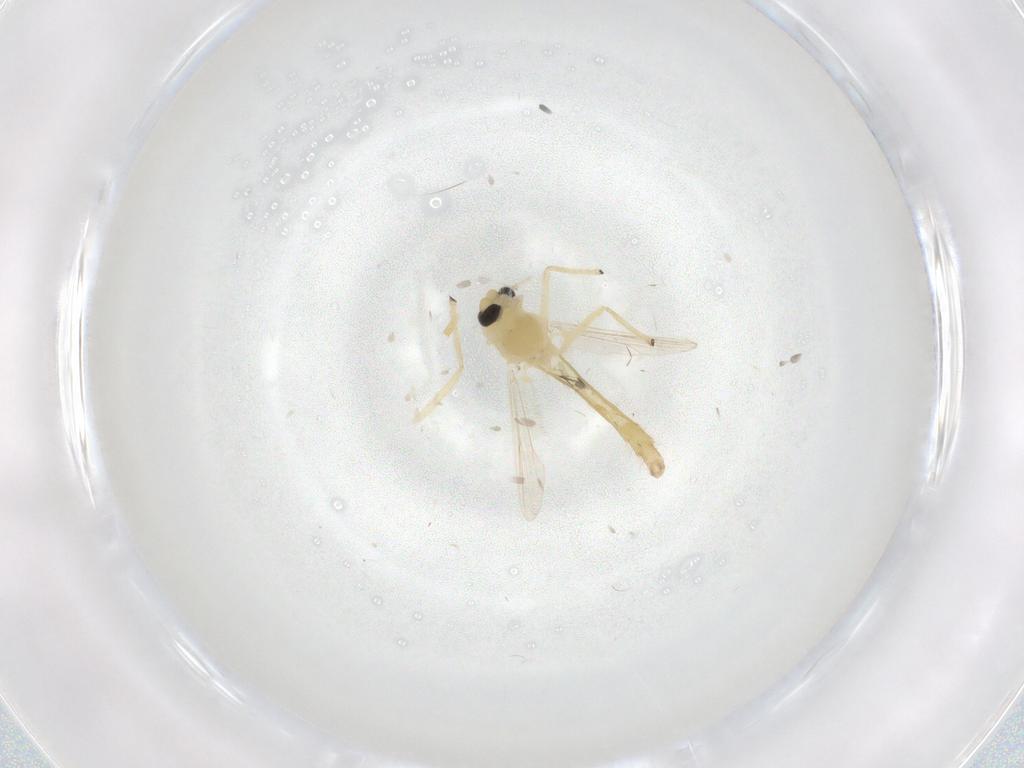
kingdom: Animalia
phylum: Arthropoda
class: Insecta
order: Diptera
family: Chironomidae
